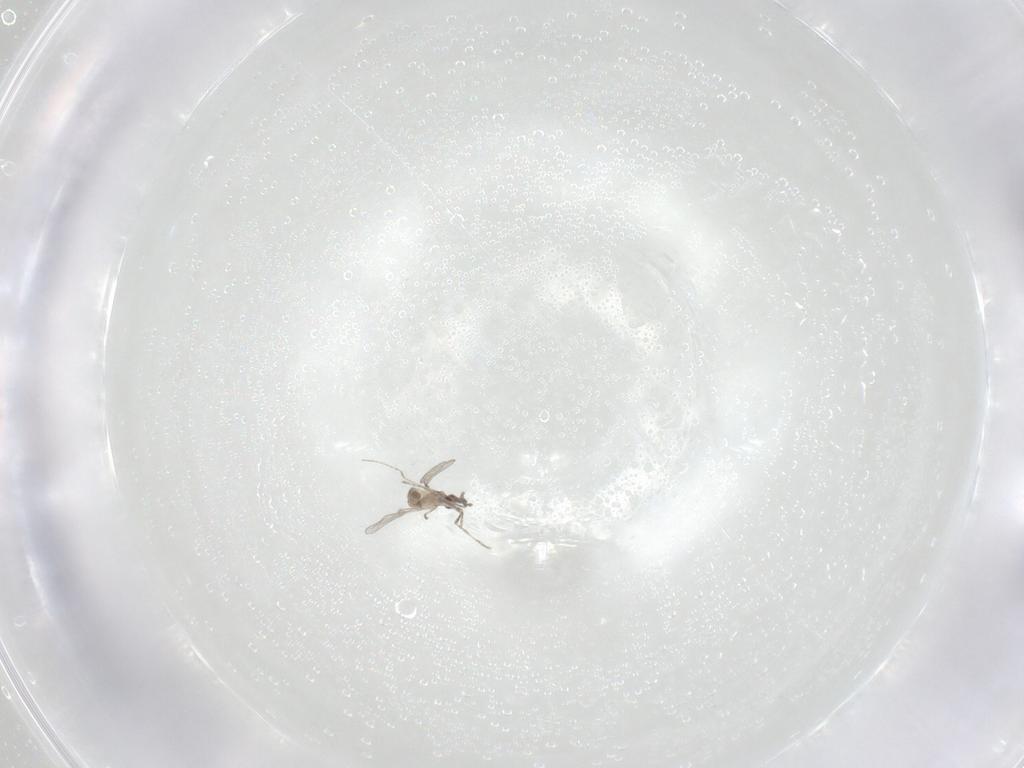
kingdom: Animalia
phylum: Arthropoda
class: Insecta
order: Diptera
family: Cecidomyiidae
